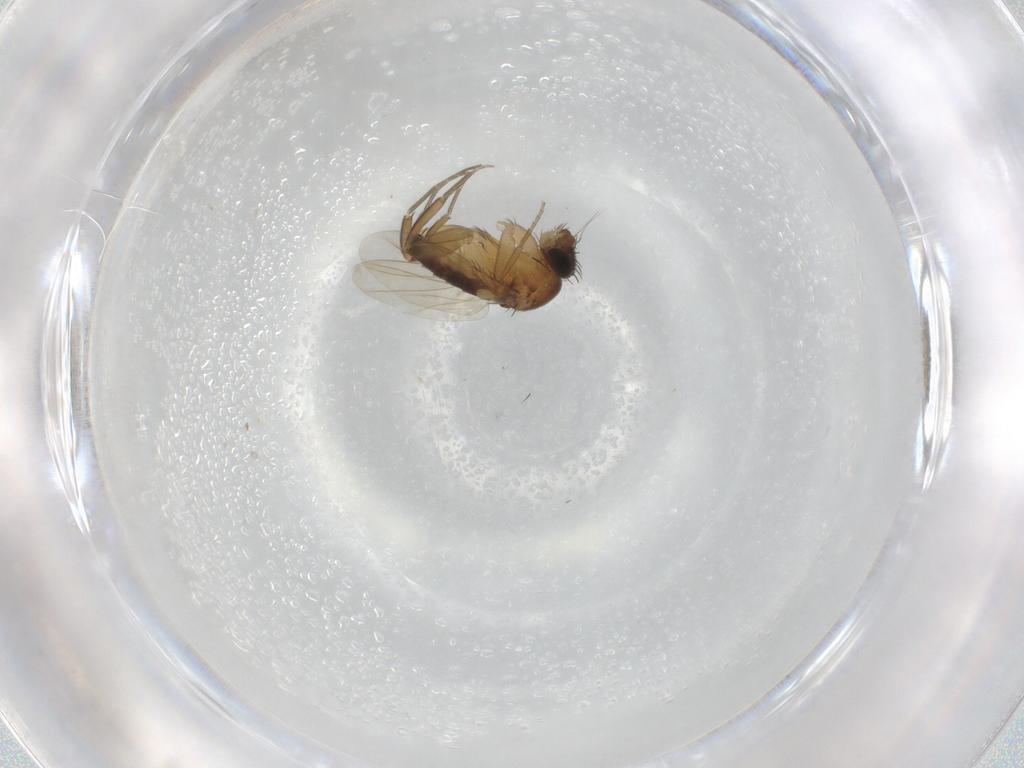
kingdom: Animalia
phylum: Arthropoda
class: Insecta
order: Diptera
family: Phoridae
